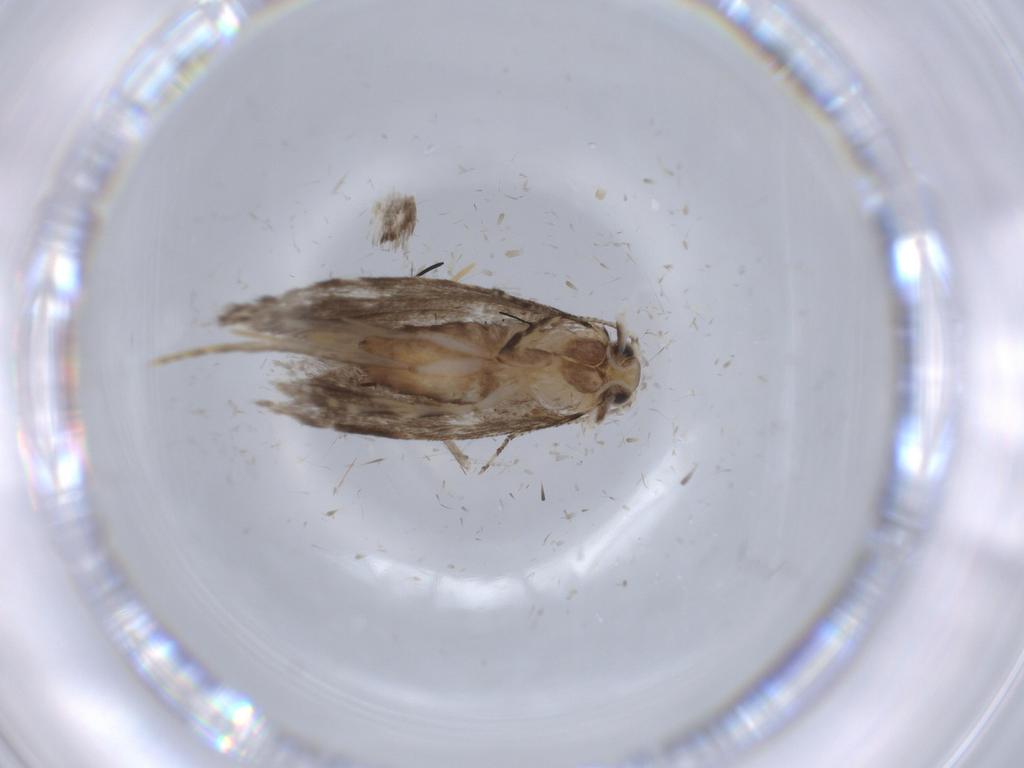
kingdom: Animalia
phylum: Arthropoda
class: Insecta
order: Lepidoptera
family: Tineidae
